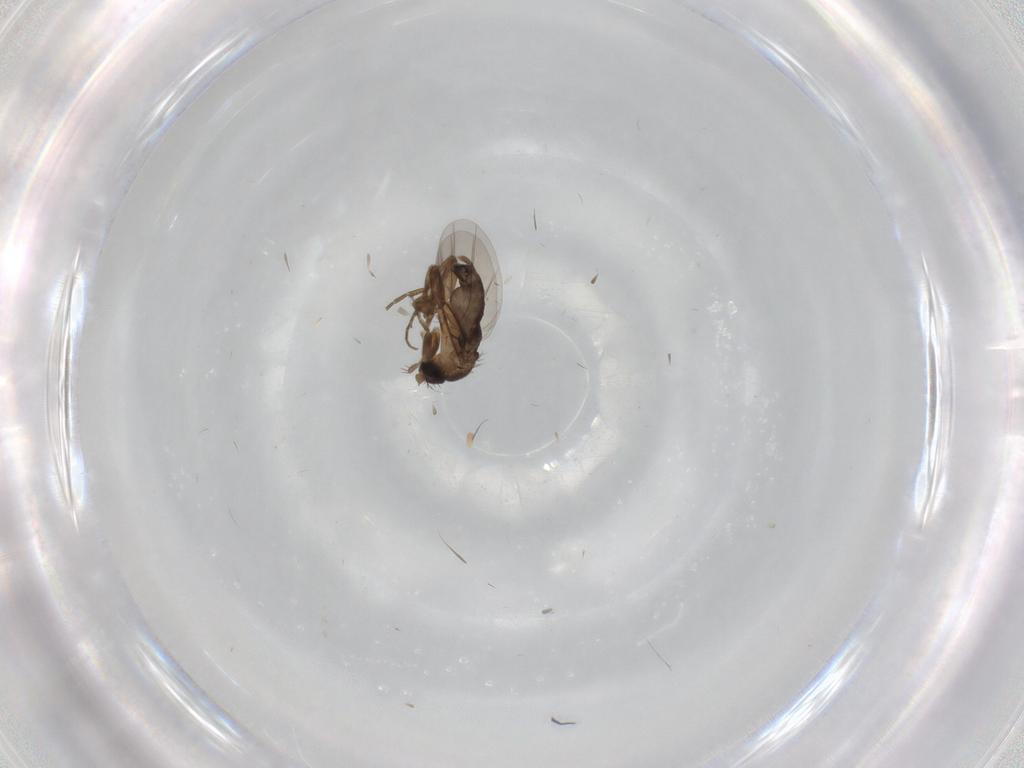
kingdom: Animalia
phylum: Arthropoda
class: Insecta
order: Diptera
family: Phoridae
